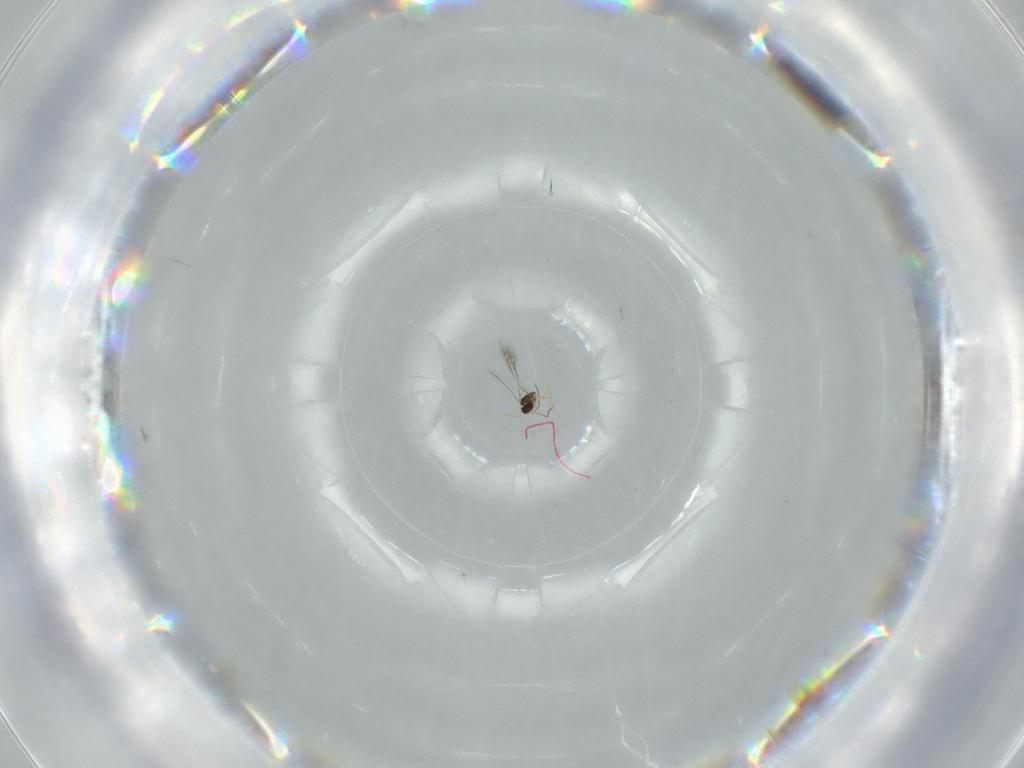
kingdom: Animalia
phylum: Arthropoda
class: Insecta
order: Hymenoptera
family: Formicidae
